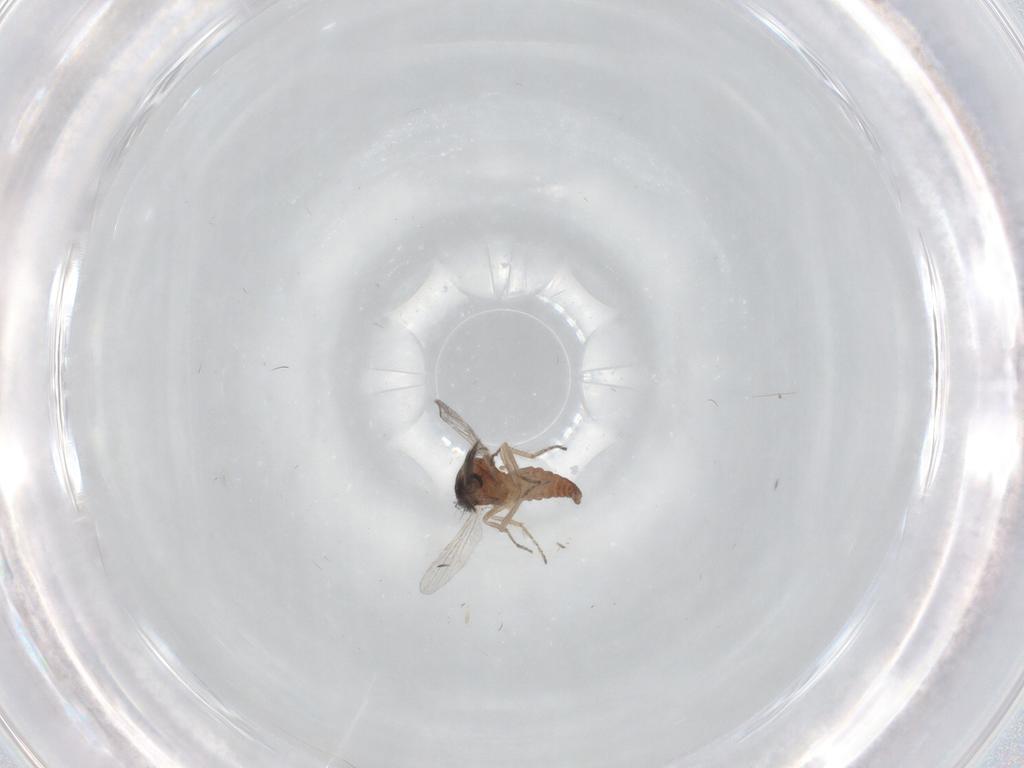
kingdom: Animalia
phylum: Arthropoda
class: Insecta
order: Diptera
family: Ceratopogonidae
